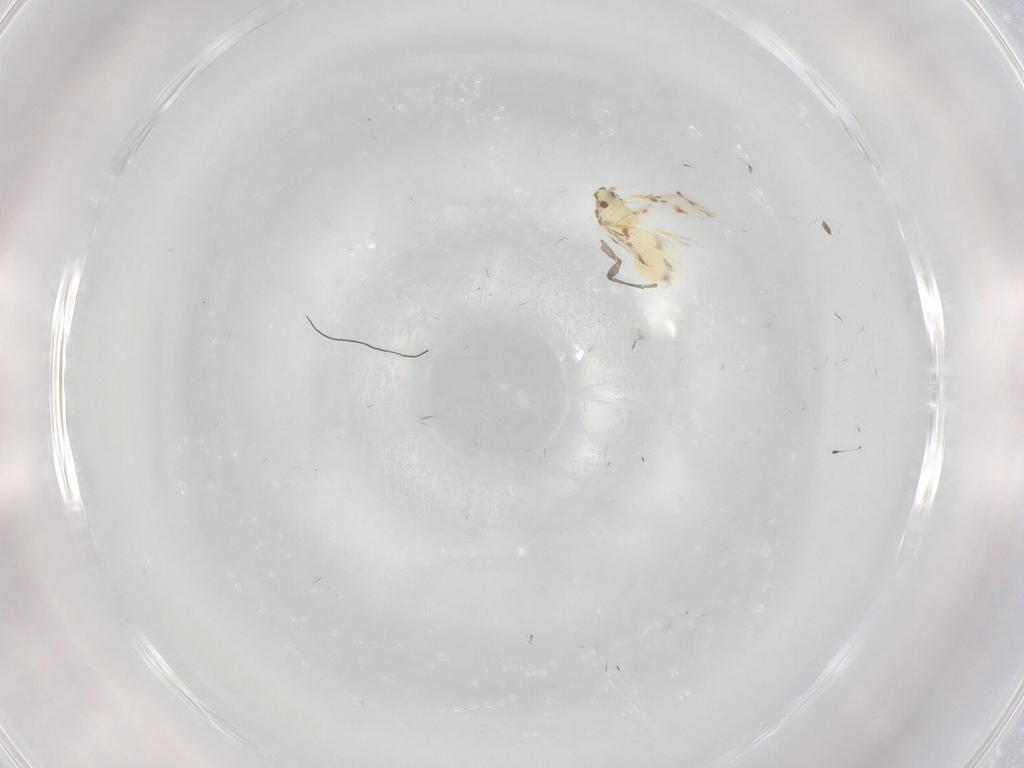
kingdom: Animalia
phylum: Arthropoda
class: Insecta
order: Hemiptera
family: Aleyrodidae
